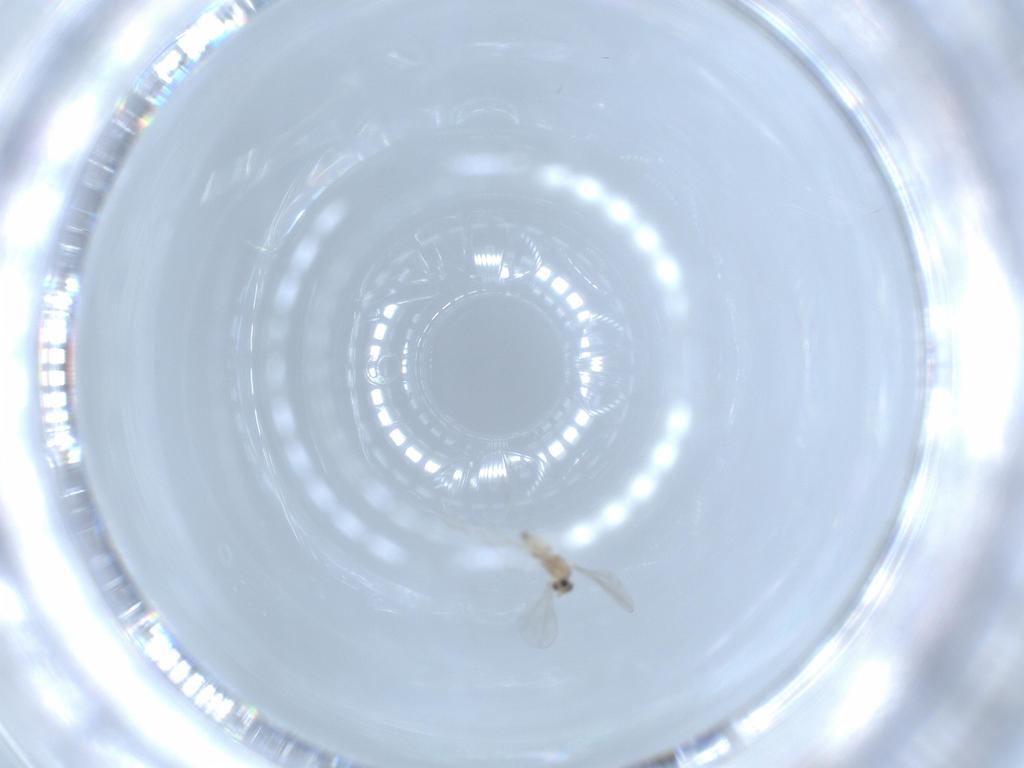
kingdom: Animalia
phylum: Arthropoda
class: Insecta
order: Diptera
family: Cecidomyiidae
